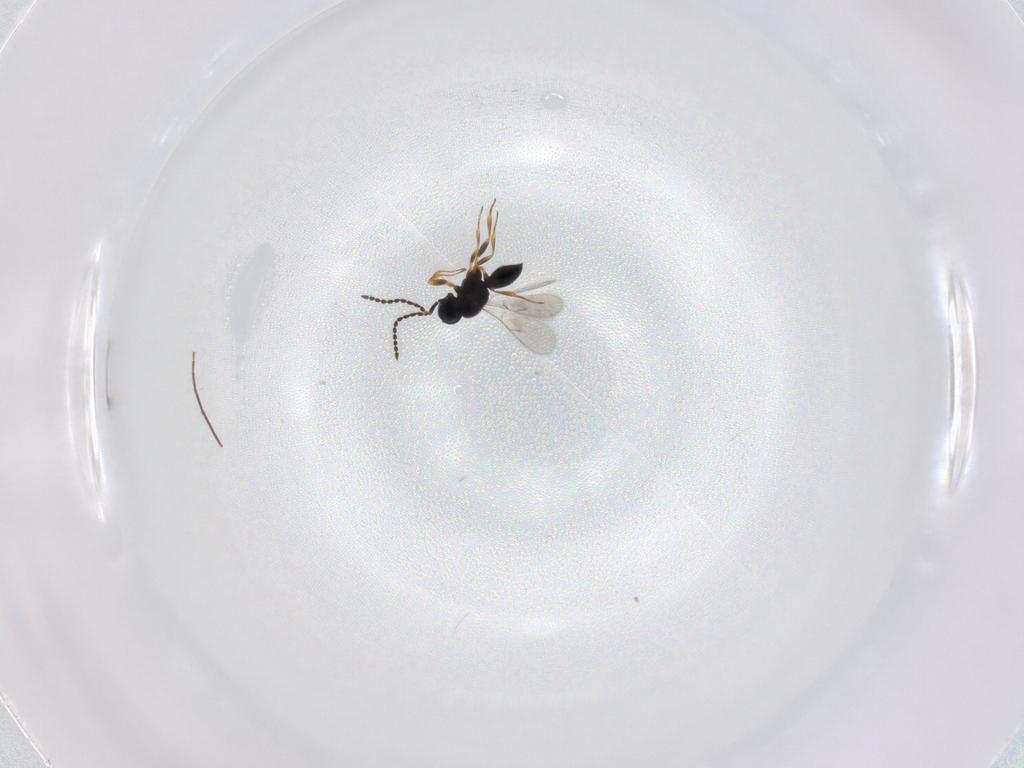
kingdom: Animalia
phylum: Arthropoda
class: Insecta
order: Hymenoptera
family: Scelionidae
